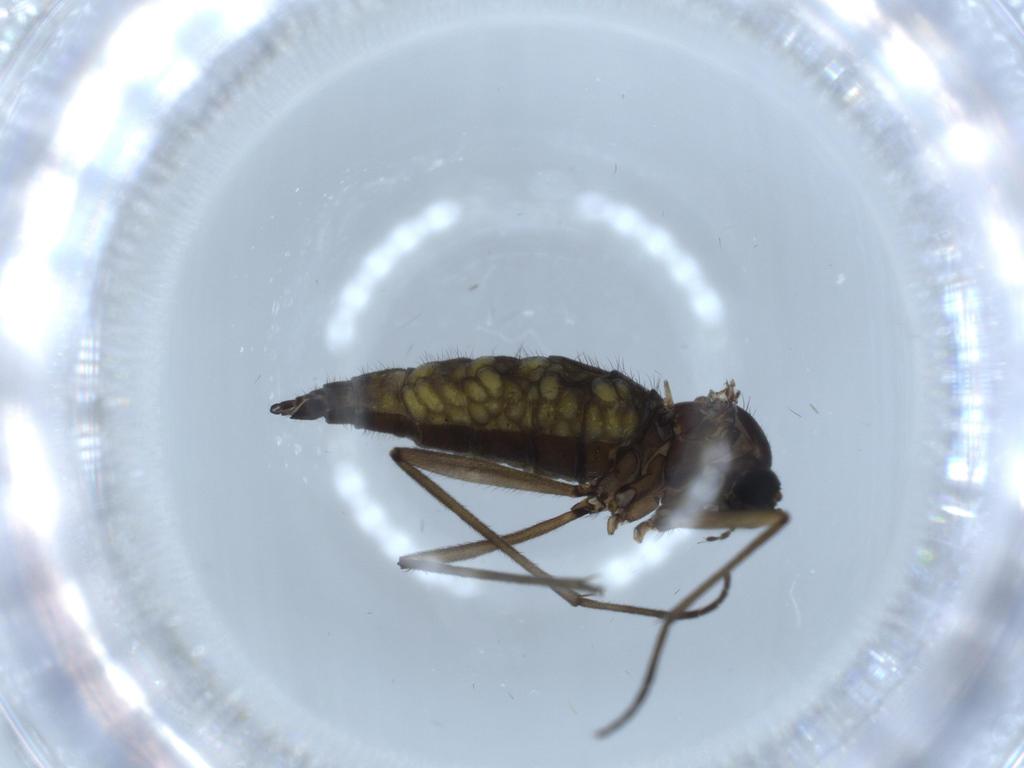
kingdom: Animalia
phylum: Arthropoda
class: Insecta
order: Diptera
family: Sciaridae
